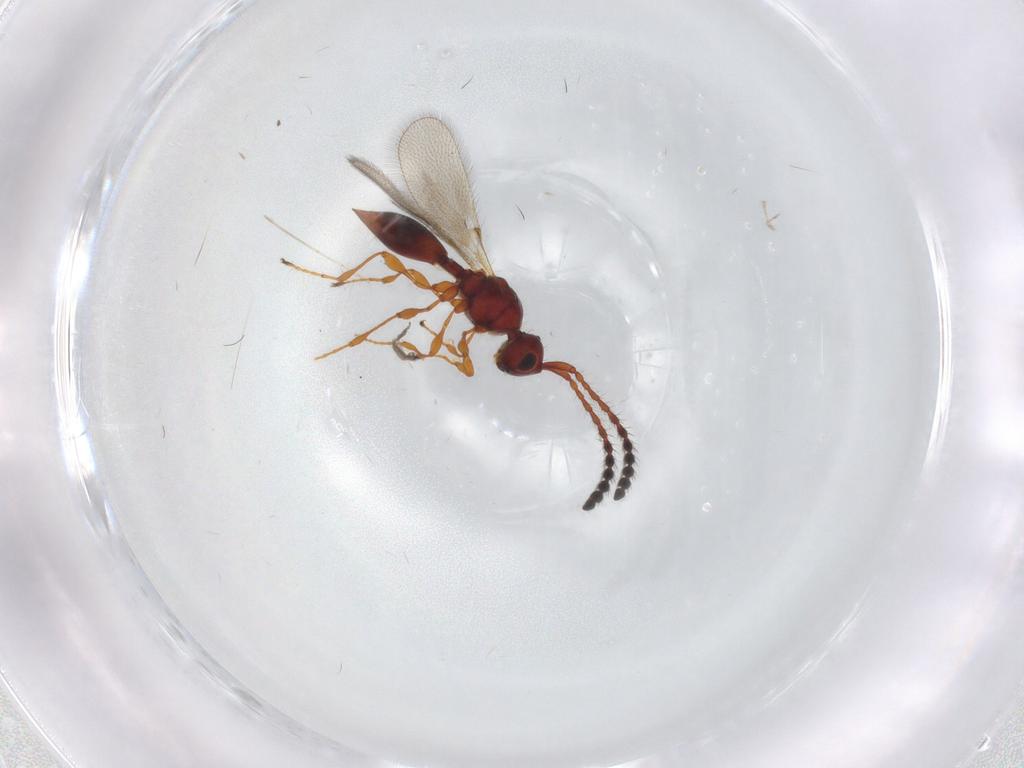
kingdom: Animalia
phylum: Arthropoda
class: Insecta
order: Hymenoptera
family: Diapriidae
